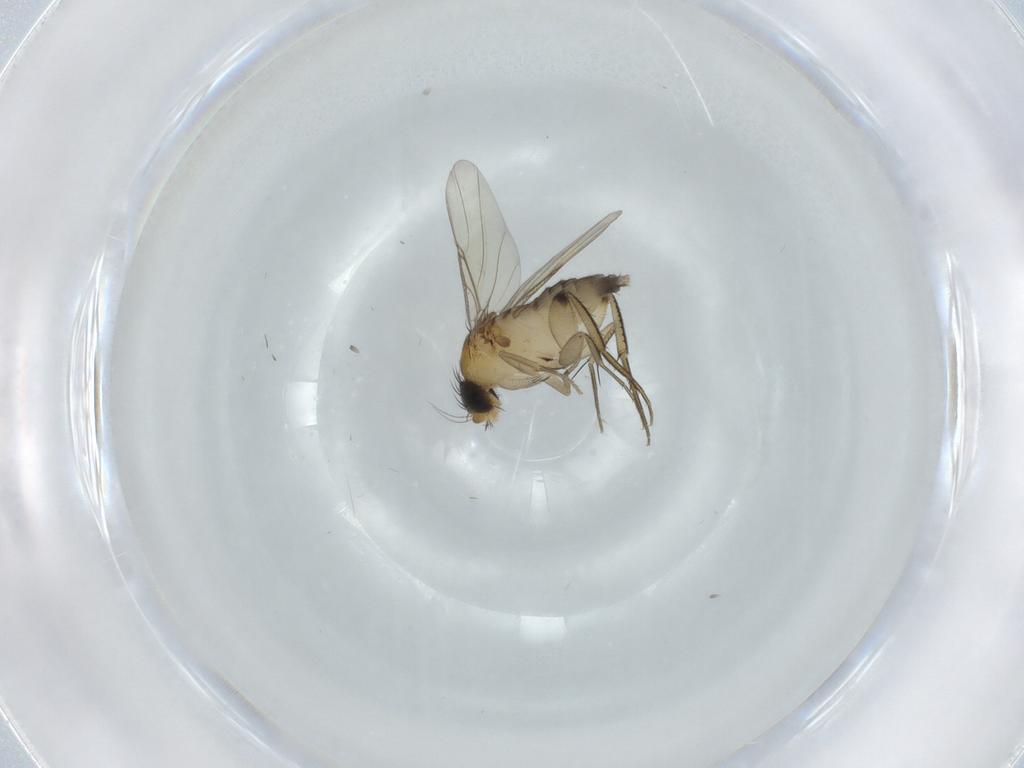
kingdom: Animalia
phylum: Arthropoda
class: Insecta
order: Diptera
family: Phoridae
